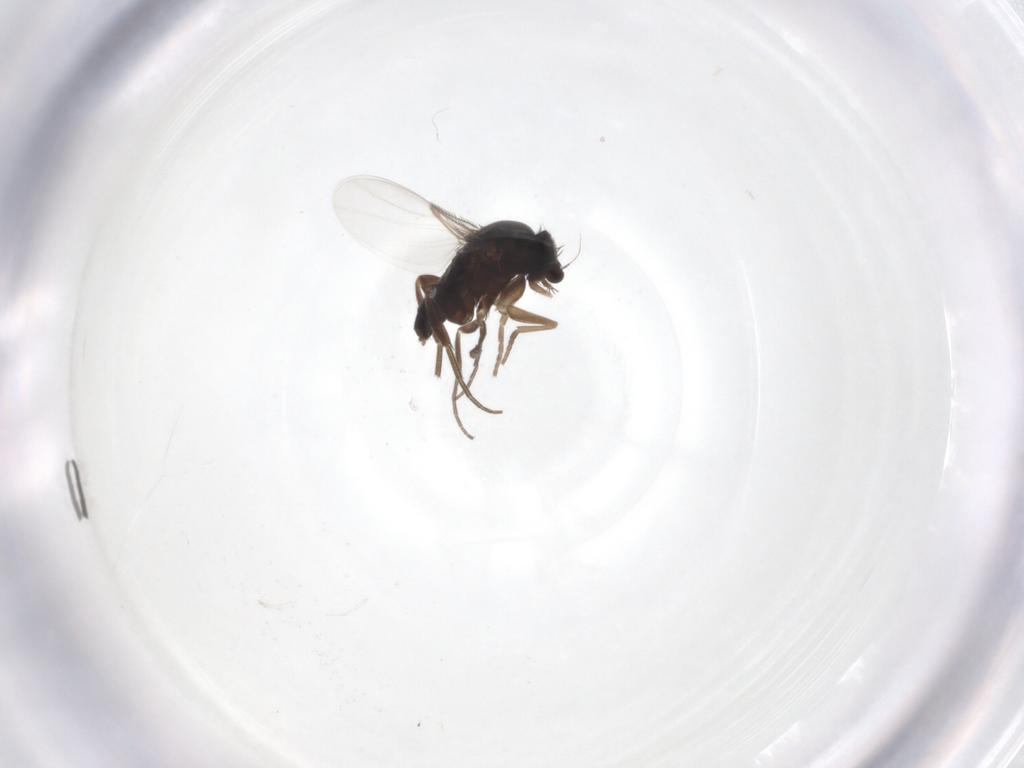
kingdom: Animalia
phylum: Arthropoda
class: Insecta
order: Diptera
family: Phoridae
